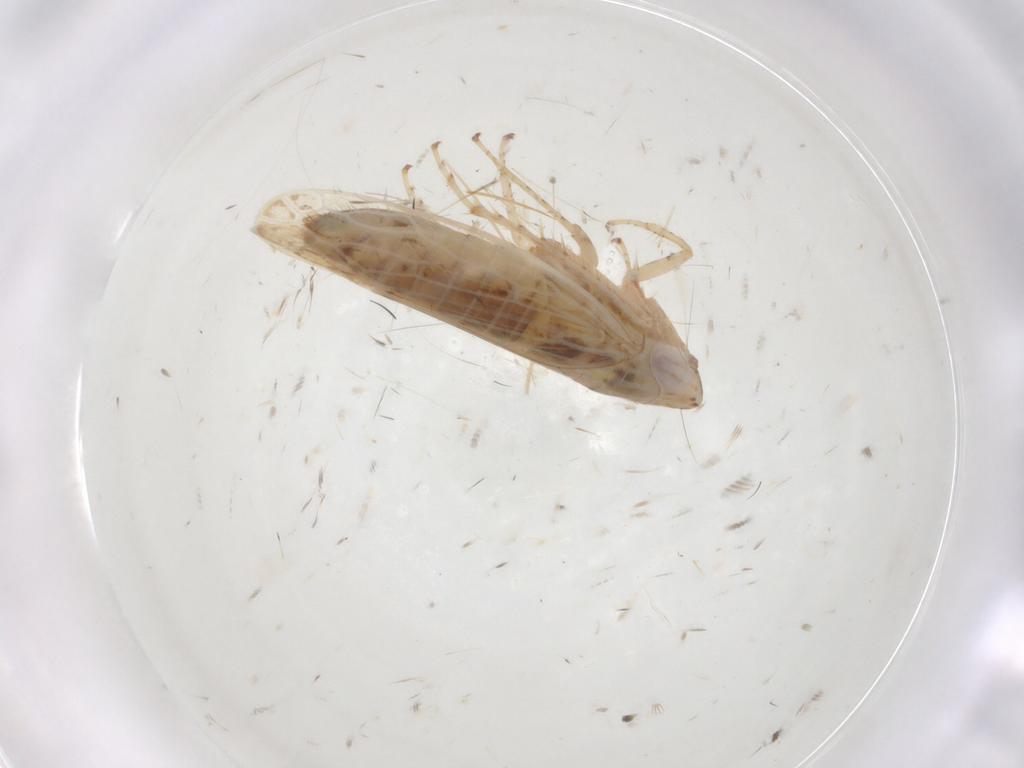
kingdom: Animalia
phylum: Arthropoda
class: Insecta
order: Hemiptera
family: Cicadellidae
